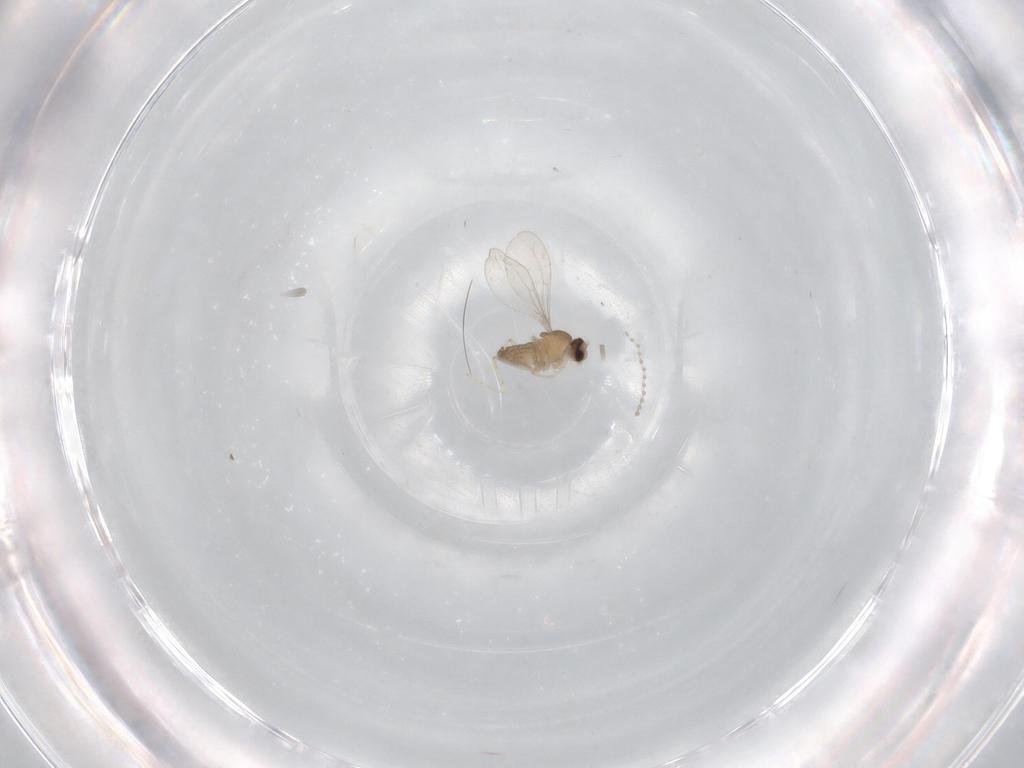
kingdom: Animalia
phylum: Arthropoda
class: Insecta
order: Diptera
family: Cecidomyiidae
